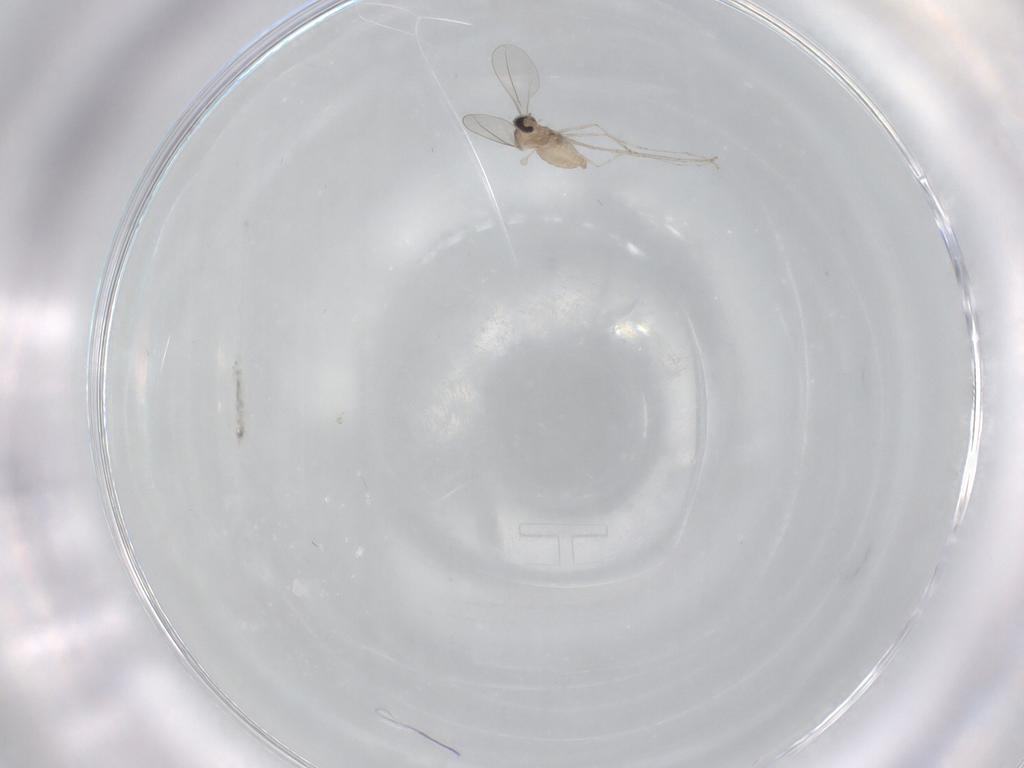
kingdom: Animalia
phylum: Arthropoda
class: Insecta
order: Diptera
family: Cecidomyiidae
